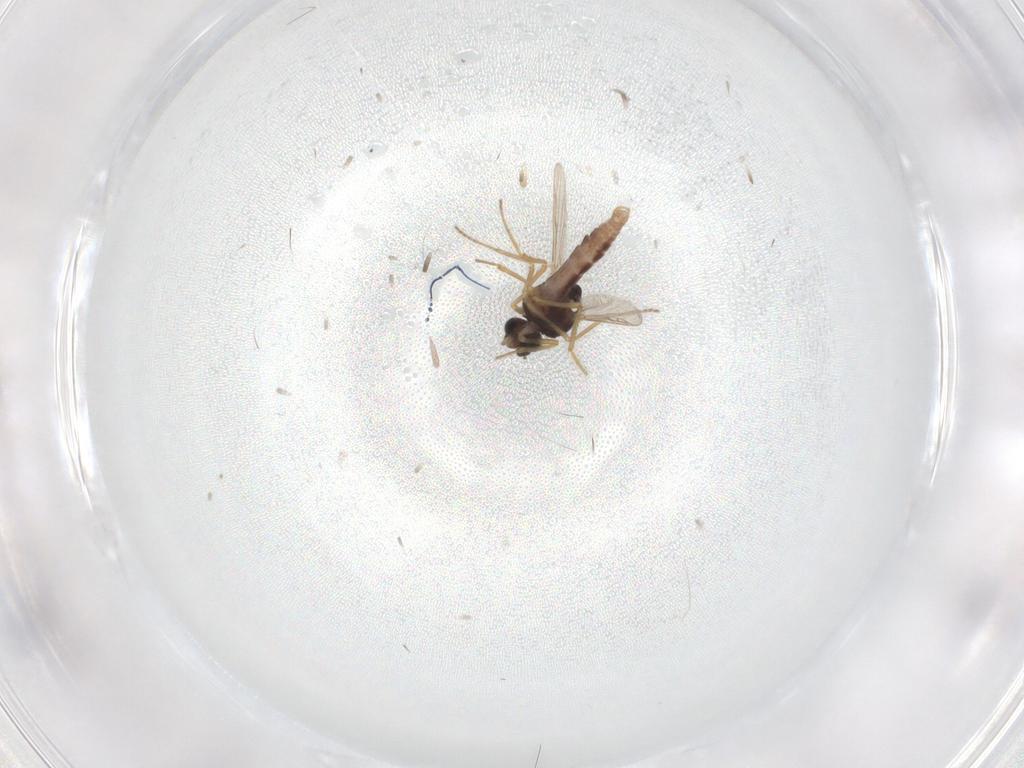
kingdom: Animalia
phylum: Arthropoda
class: Insecta
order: Diptera
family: Ceratopogonidae
